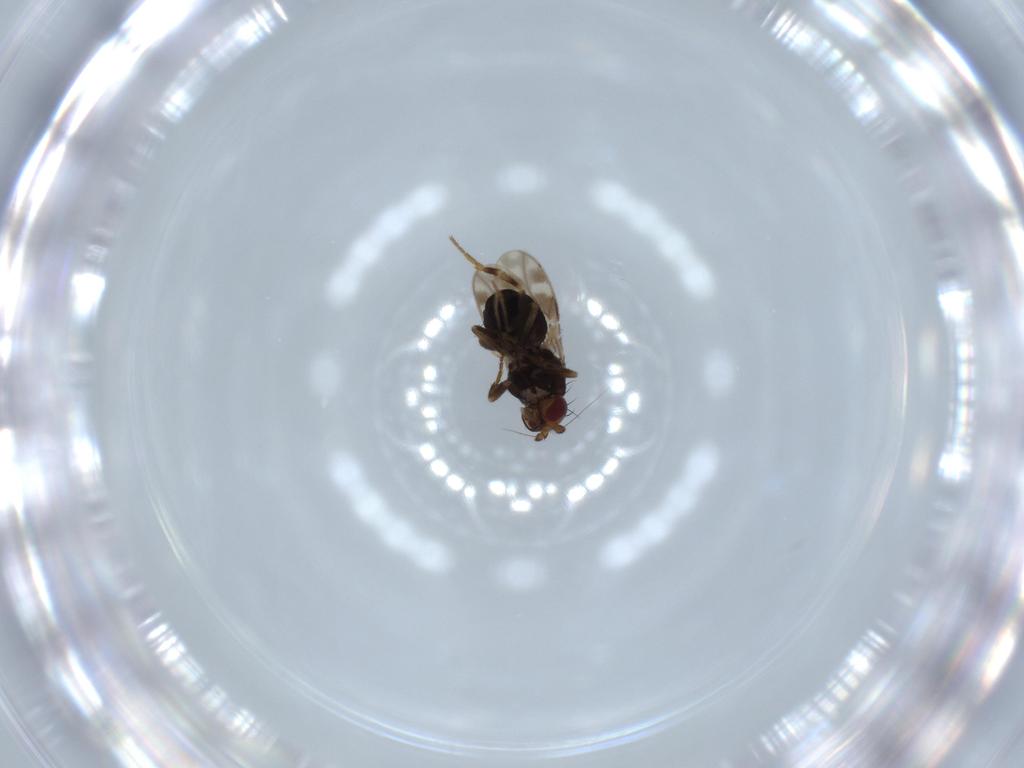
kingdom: Animalia
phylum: Arthropoda
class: Insecta
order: Diptera
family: Sphaeroceridae
